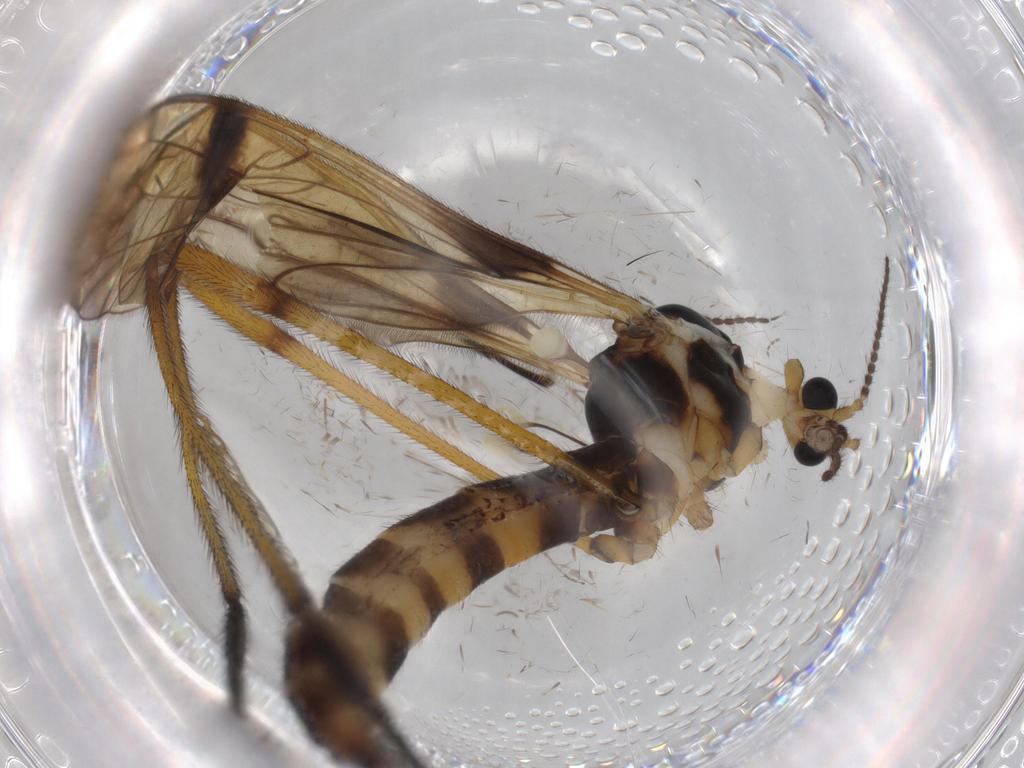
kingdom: Animalia
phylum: Arthropoda
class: Insecta
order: Diptera
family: Limoniidae
